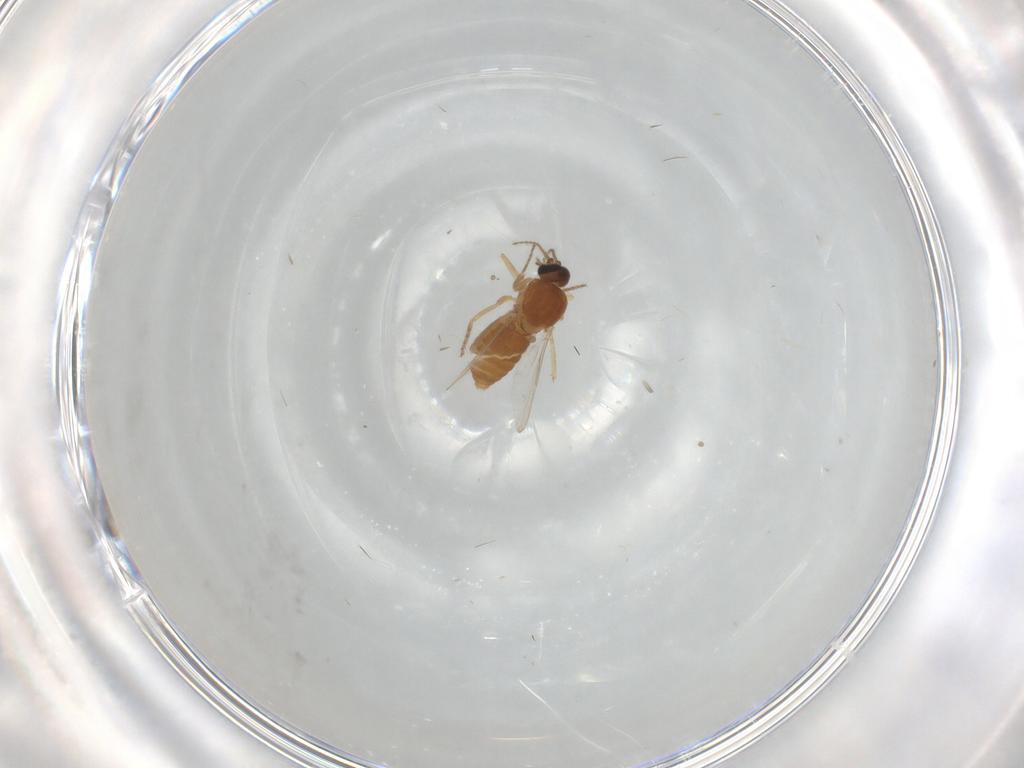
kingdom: Animalia
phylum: Arthropoda
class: Insecta
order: Diptera
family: Ceratopogonidae
